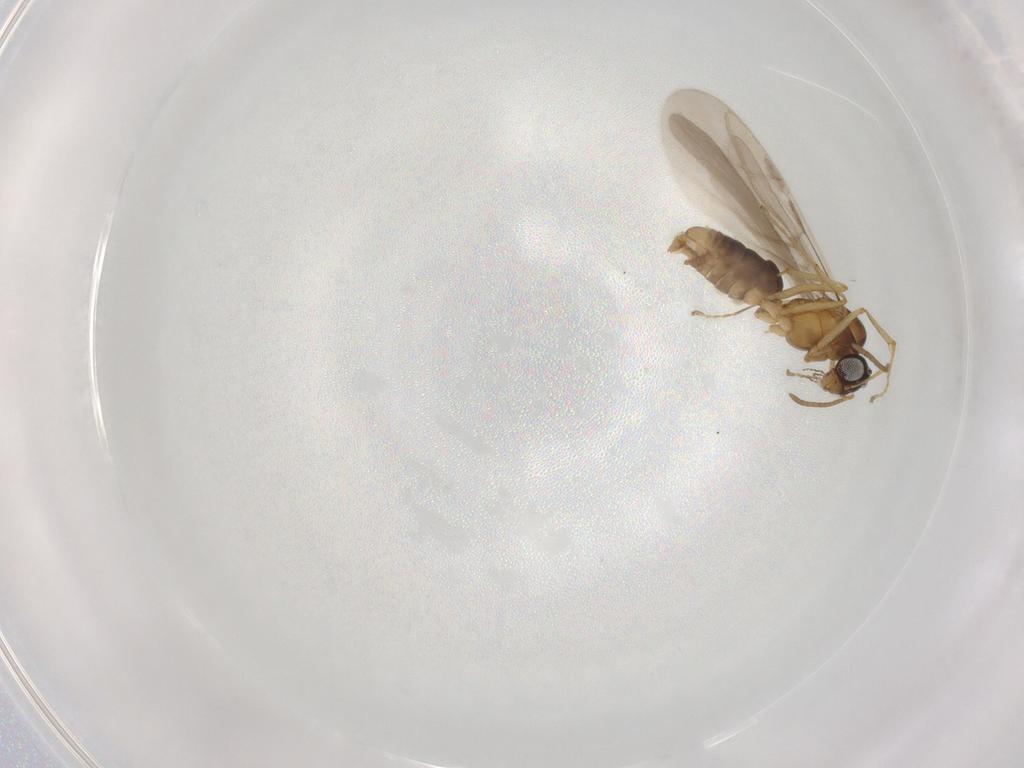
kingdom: Animalia
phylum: Arthropoda
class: Insecta
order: Hymenoptera
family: Formicidae
